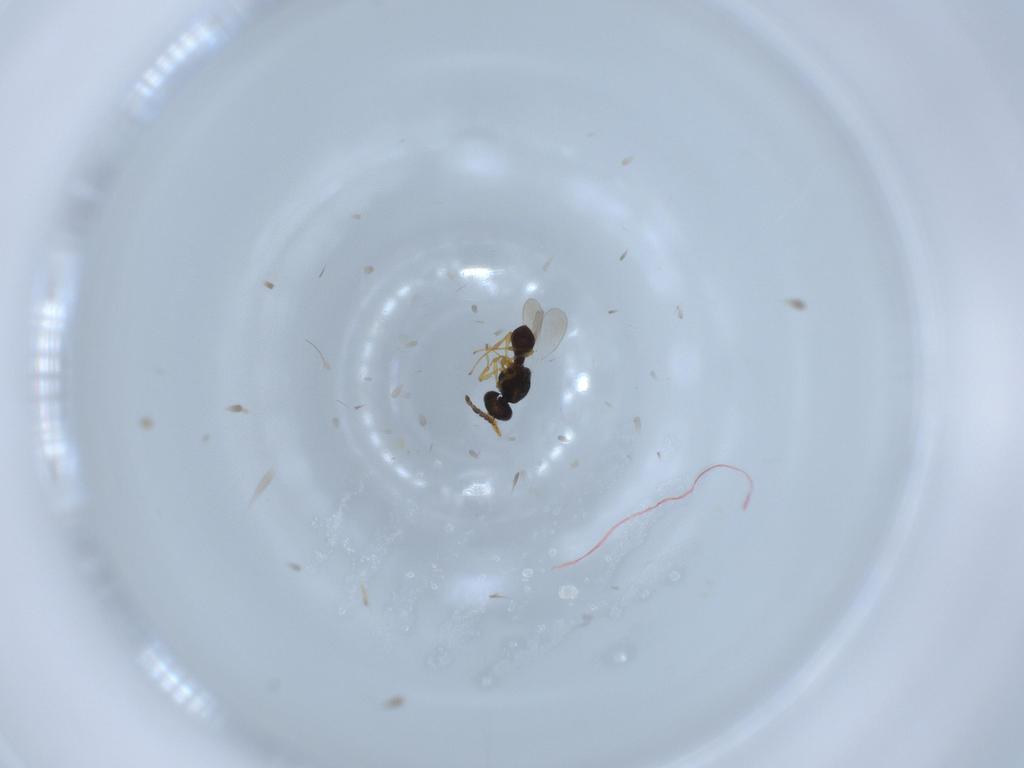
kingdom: Animalia
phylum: Arthropoda
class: Insecta
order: Hymenoptera
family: Platygastridae
